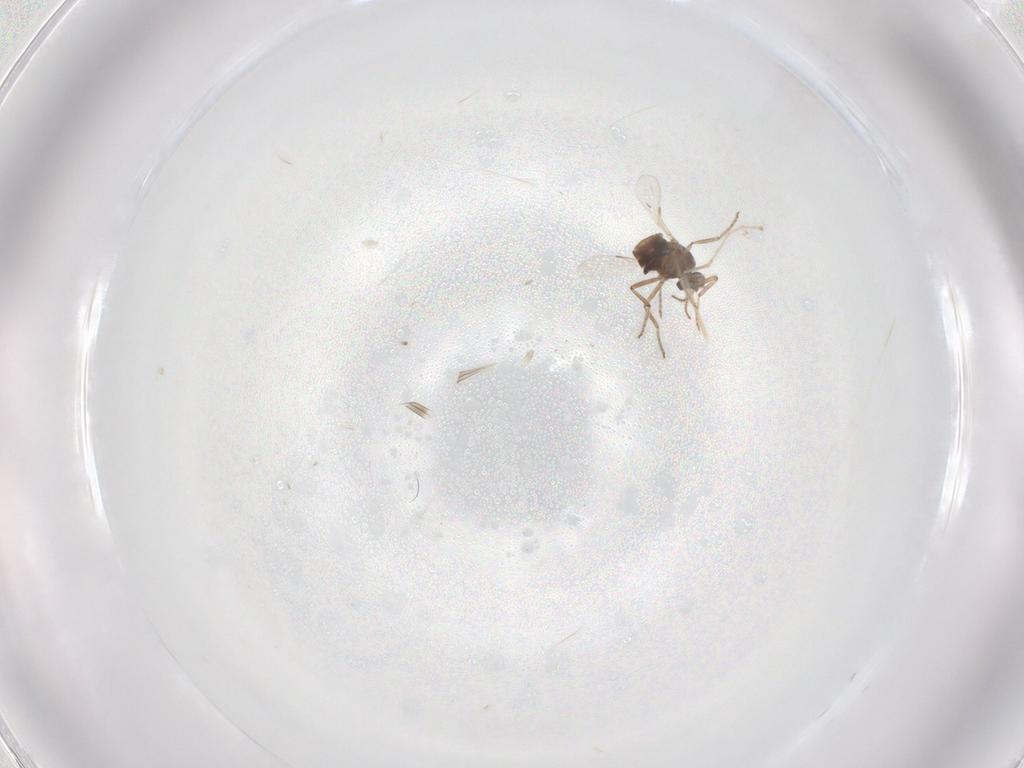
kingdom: Animalia
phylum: Arthropoda
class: Insecta
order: Diptera
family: Ceratopogonidae
